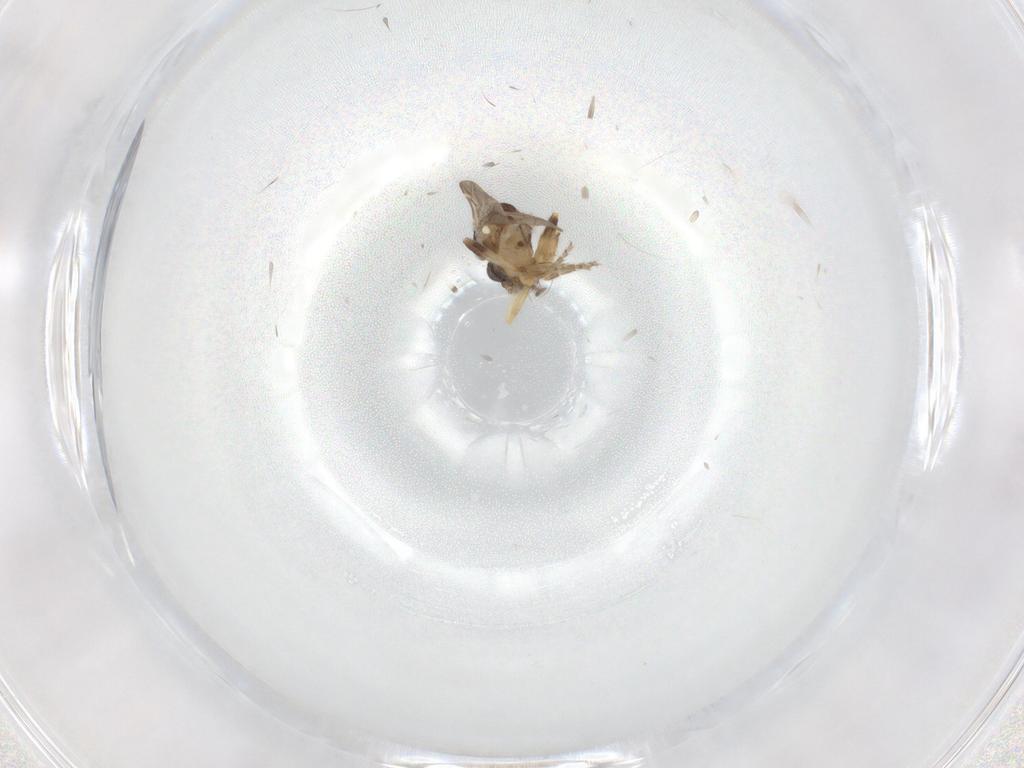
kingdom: Animalia
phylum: Arthropoda
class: Insecta
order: Diptera
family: Ceratopogonidae
